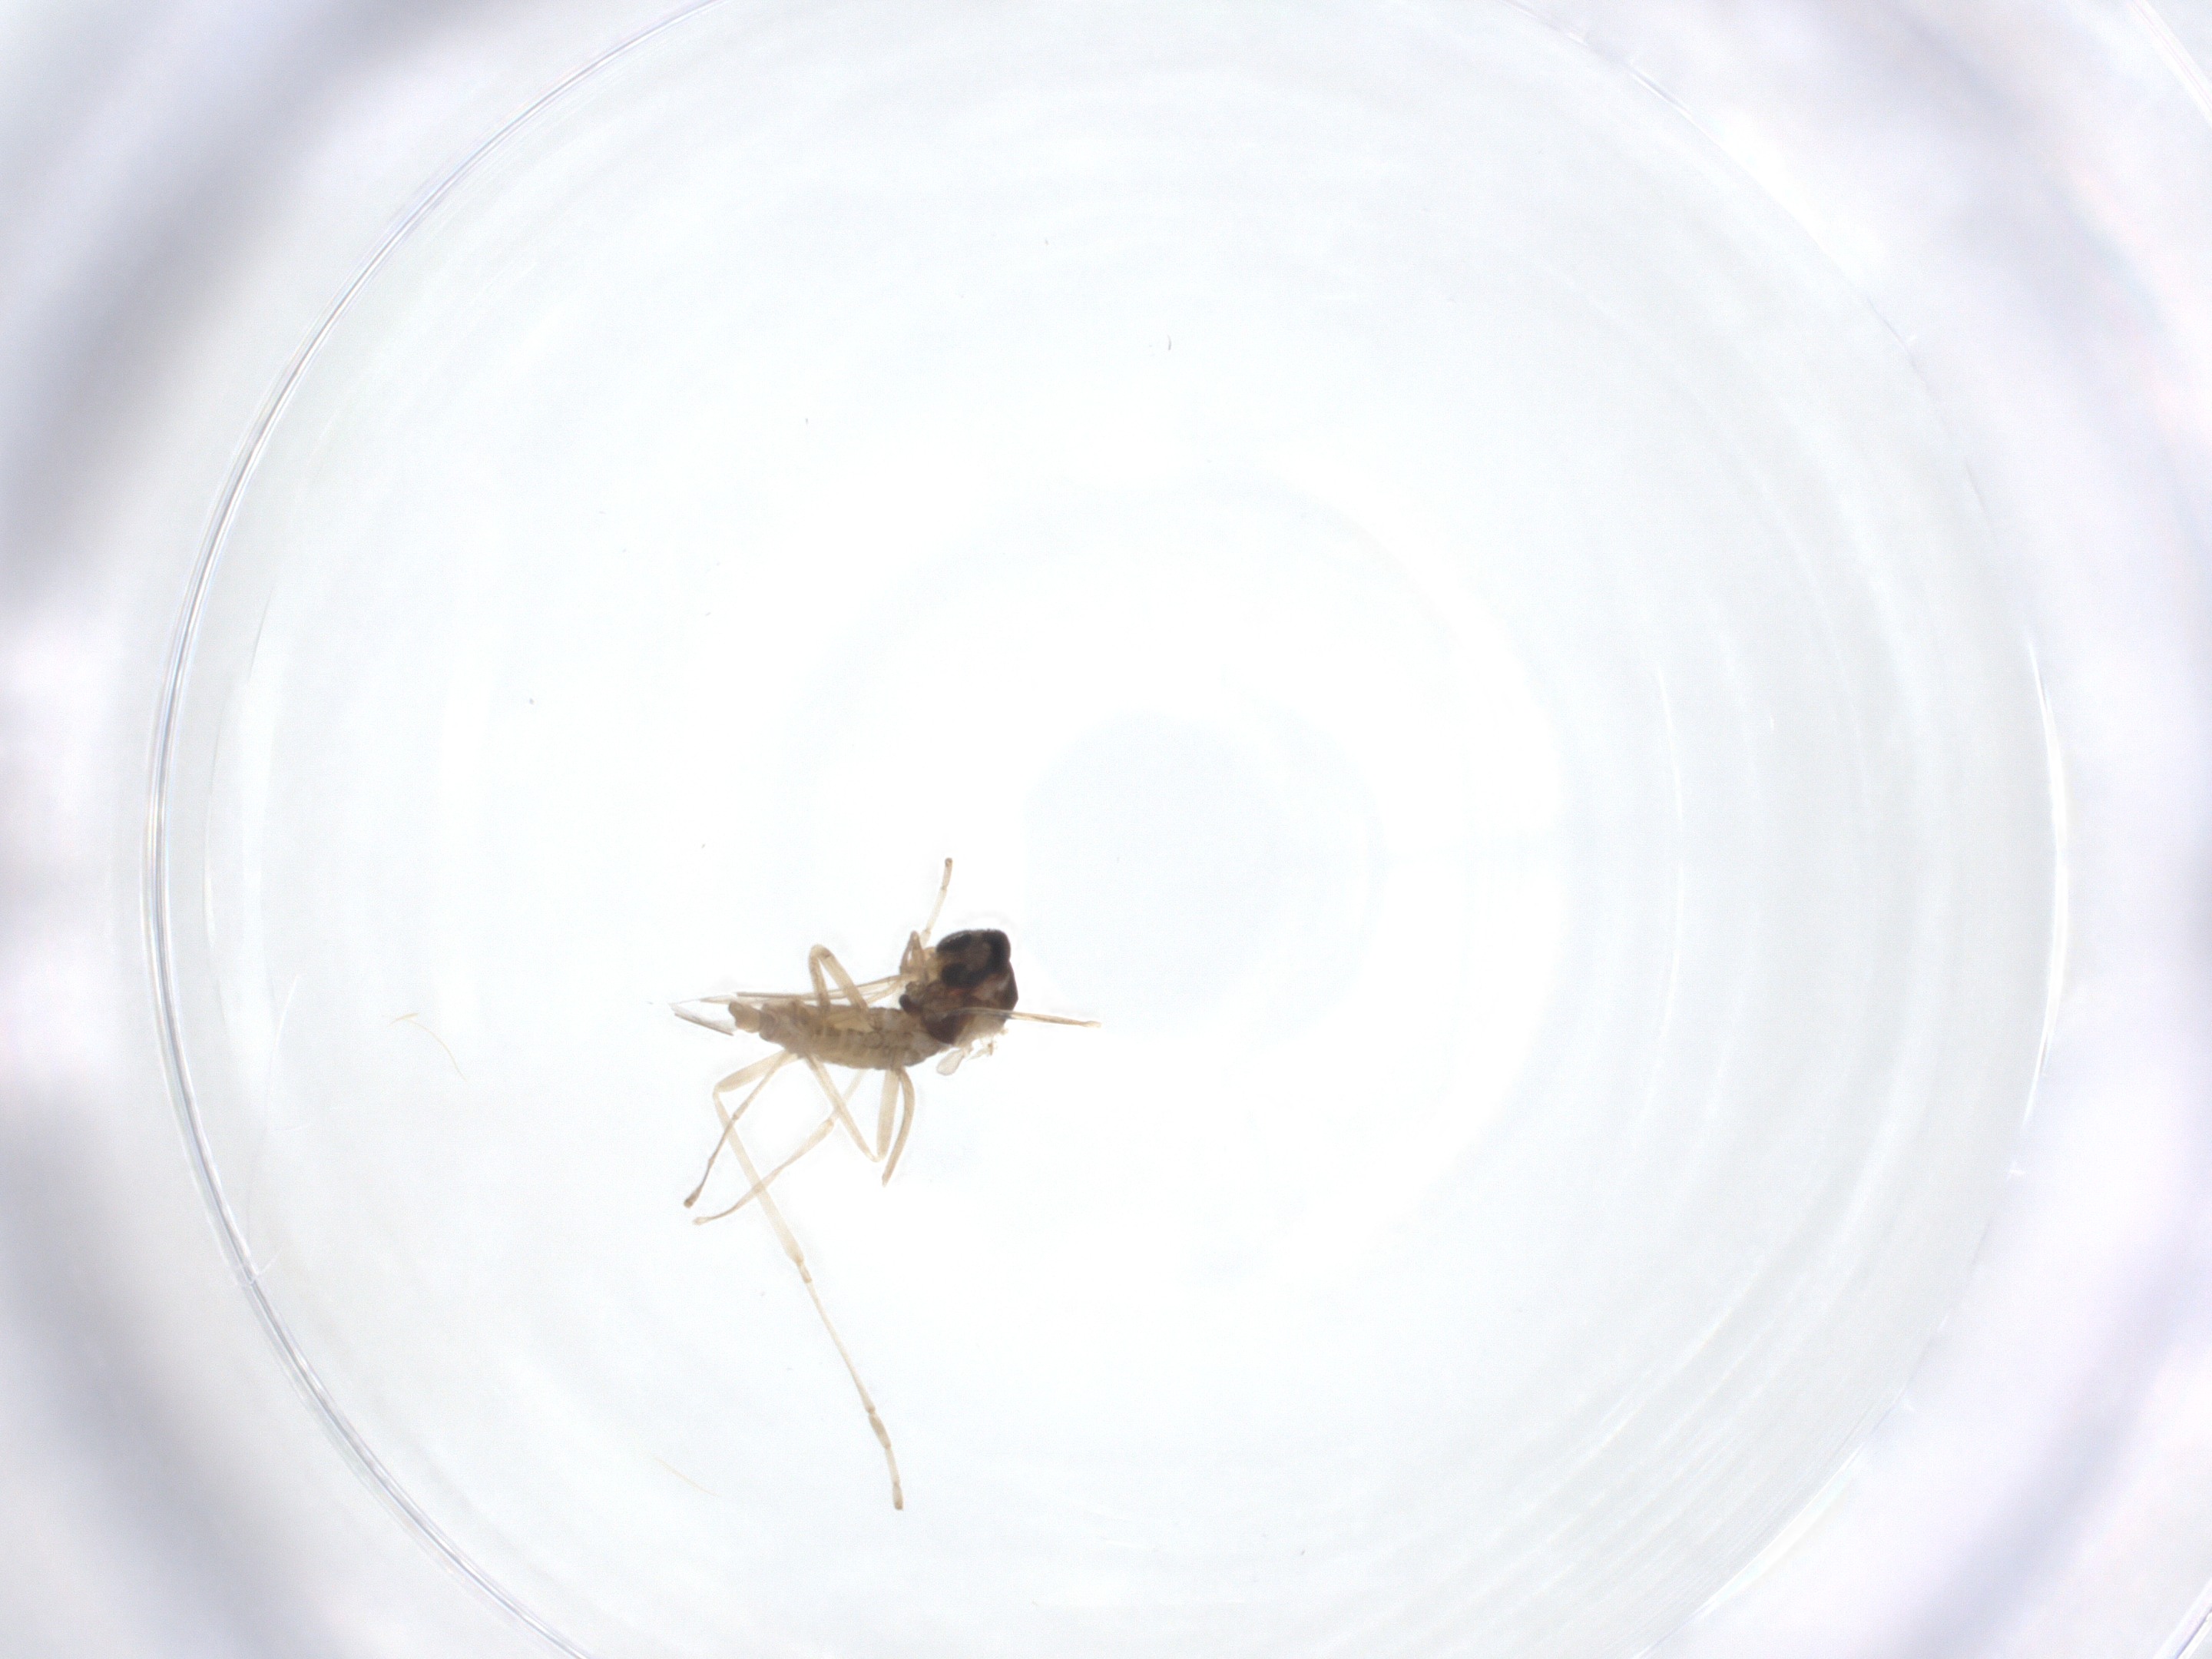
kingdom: Animalia
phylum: Arthropoda
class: Insecta
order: Diptera
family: Cecidomyiidae
